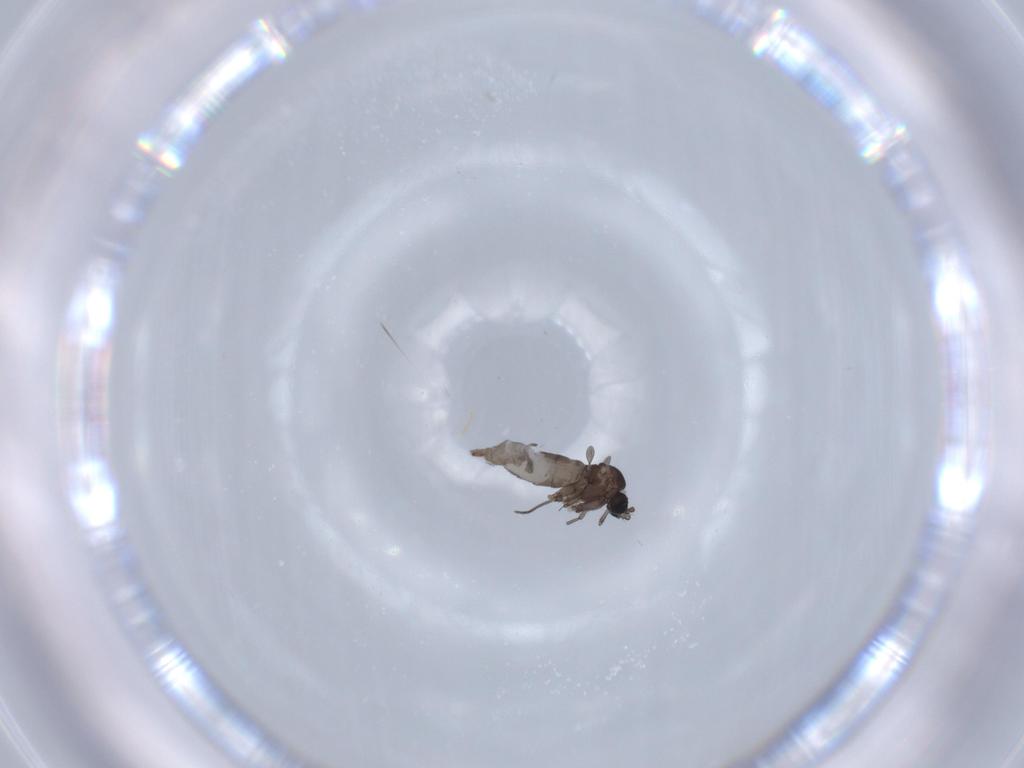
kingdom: Animalia
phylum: Arthropoda
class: Insecta
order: Diptera
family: Sciaridae
